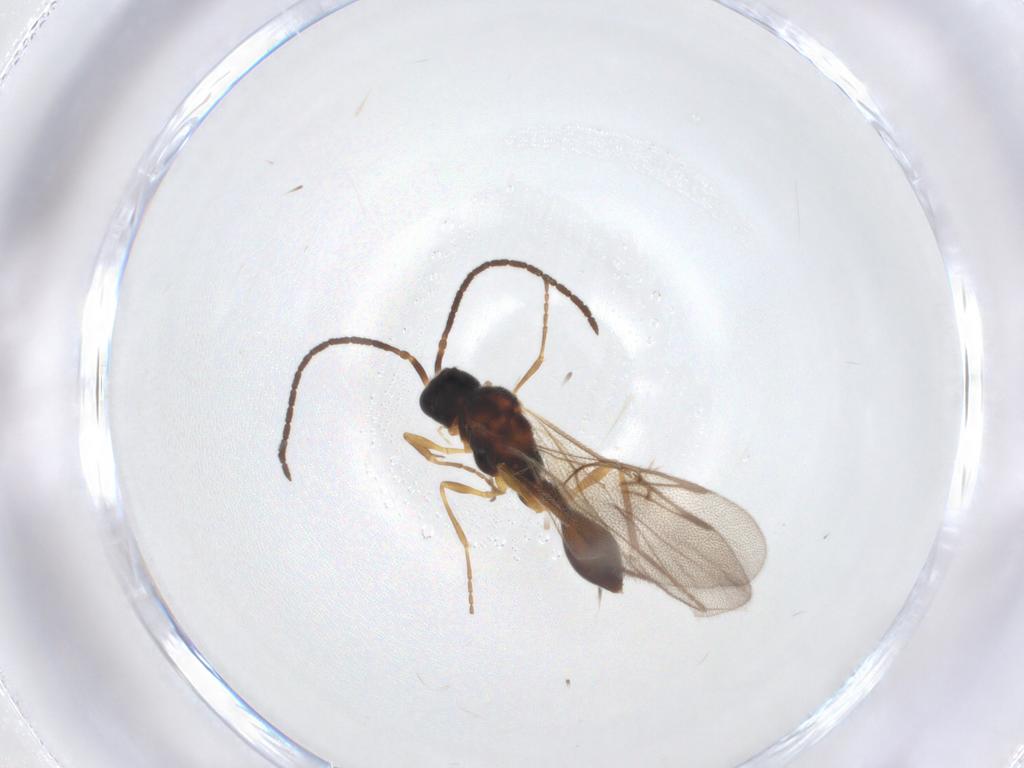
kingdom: Animalia
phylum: Arthropoda
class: Insecta
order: Hymenoptera
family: Diapriidae
